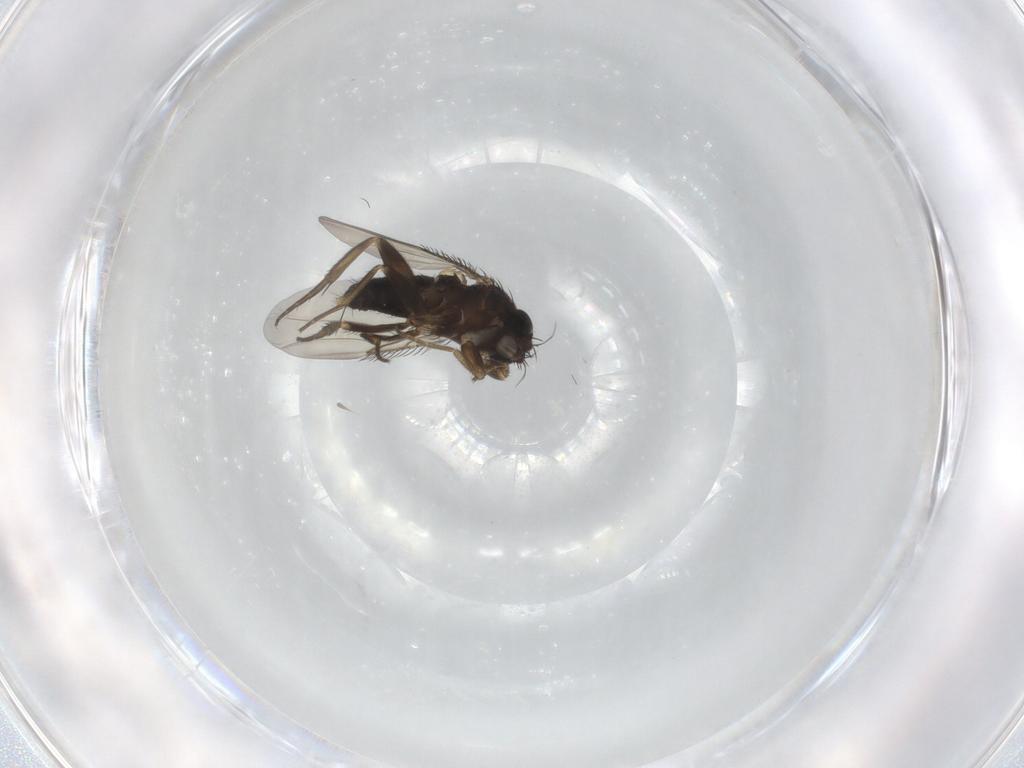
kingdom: Animalia
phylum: Arthropoda
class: Insecta
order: Diptera
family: Phoridae
